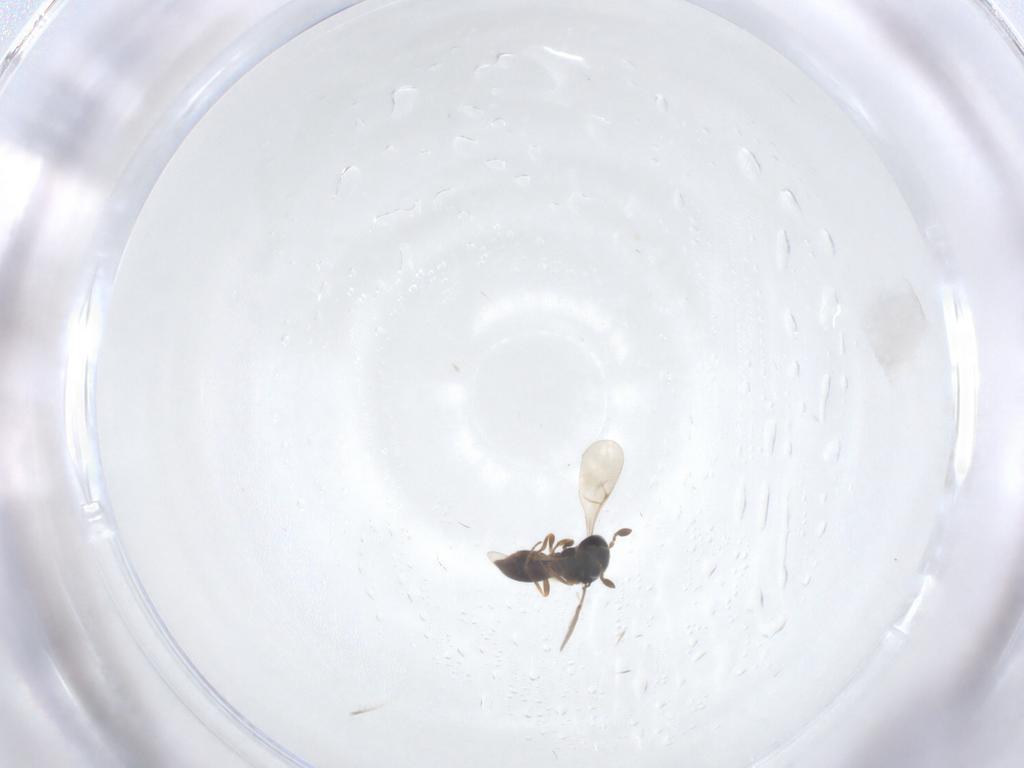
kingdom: Animalia
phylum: Arthropoda
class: Insecta
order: Hymenoptera
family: Scelionidae
